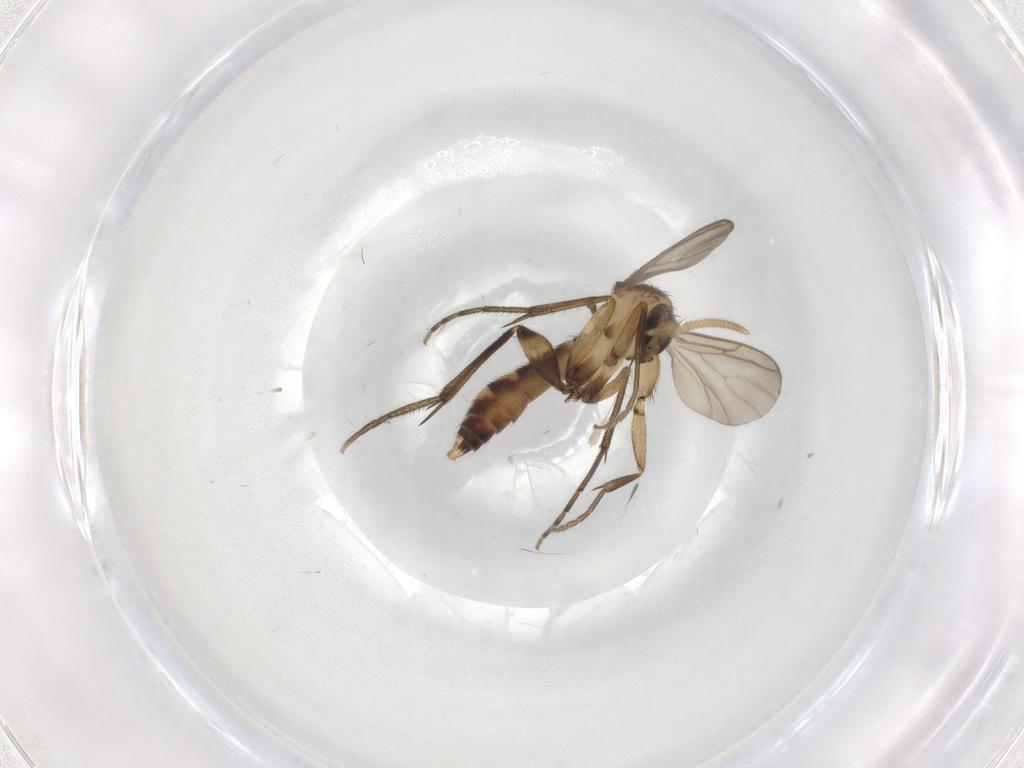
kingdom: Animalia
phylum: Arthropoda
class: Insecta
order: Diptera
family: Mycetophilidae
